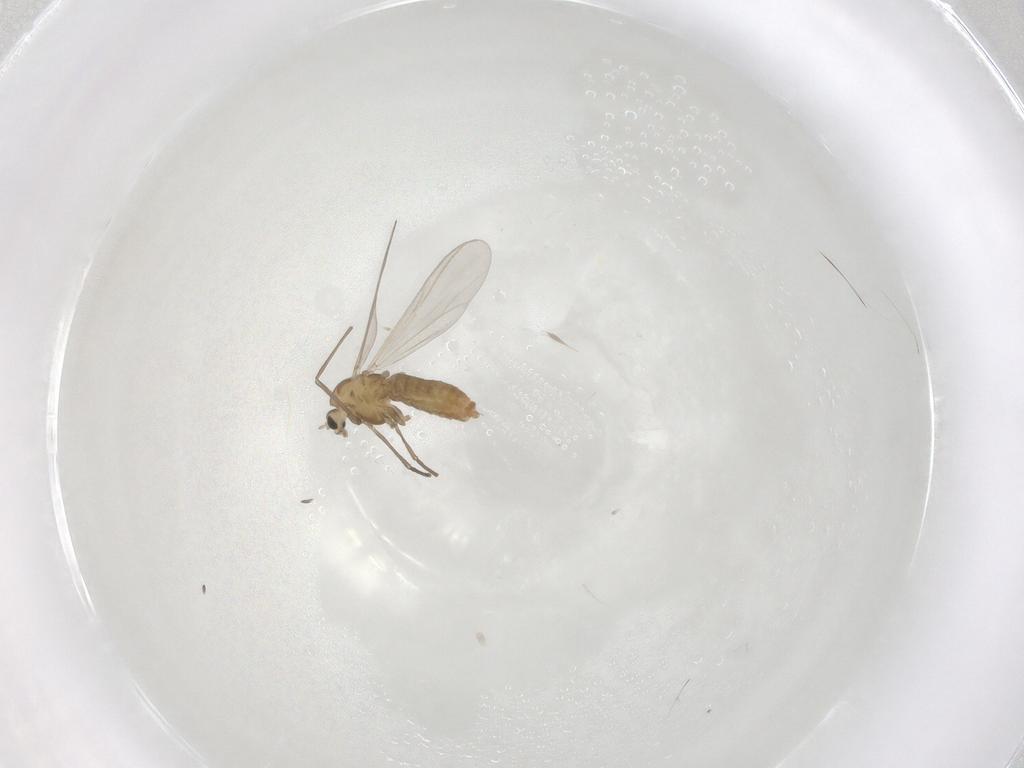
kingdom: Animalia
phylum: Arthropoda
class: Insecta
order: Diptera
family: Chironomidae
